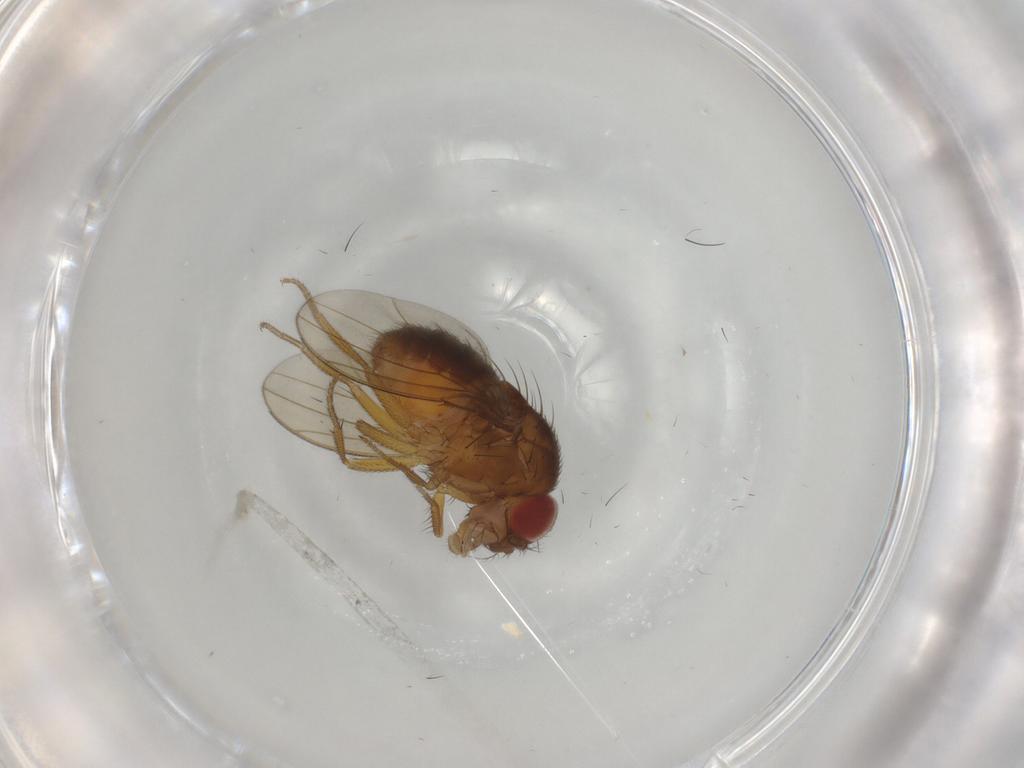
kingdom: Animalia
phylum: Arthropoda
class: Insecta
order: Diptera
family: Drosophilidae
